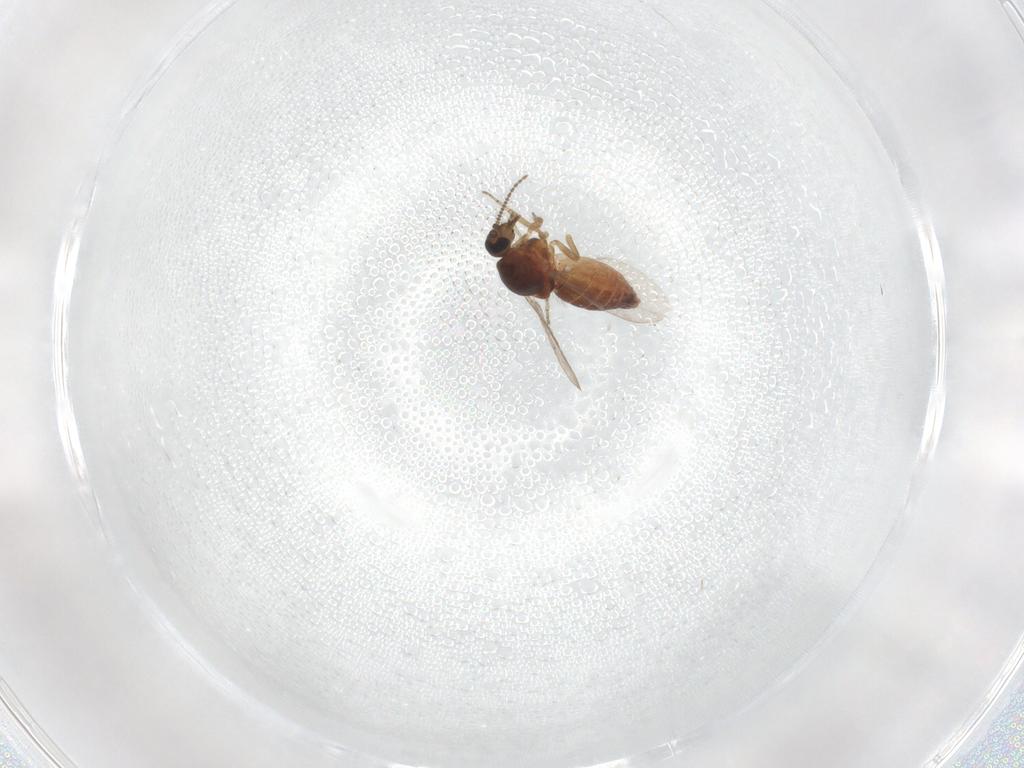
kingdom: Animalia
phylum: Arthropoda
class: Insecta
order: Diptera
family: Ceratopogonidae
